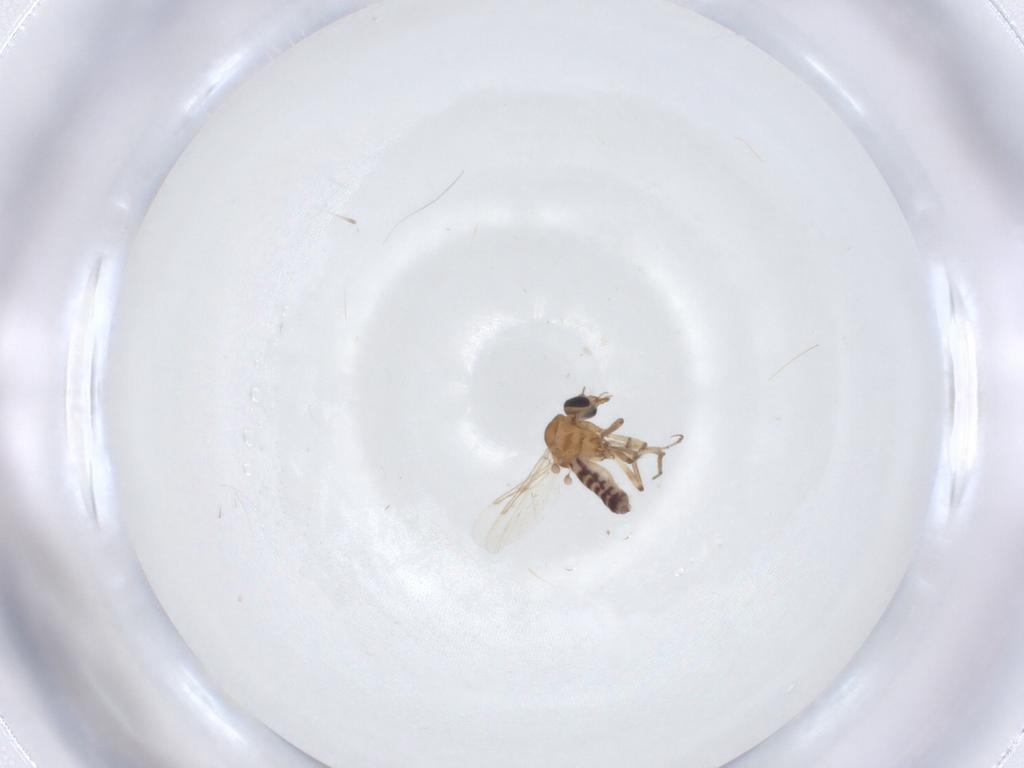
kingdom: Animalia
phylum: Arthropoda
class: Insecta
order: Diptera
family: Chironomidae
